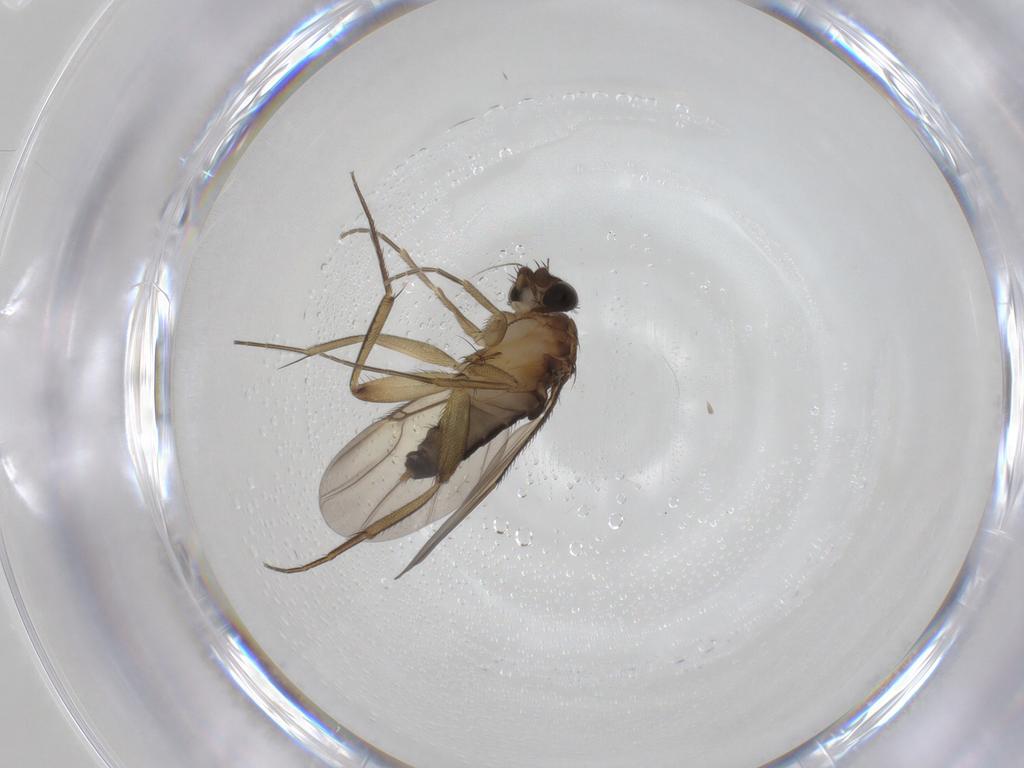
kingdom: Animalia
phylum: Arthropoda
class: Insecta
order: Diptera
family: Phoridae
